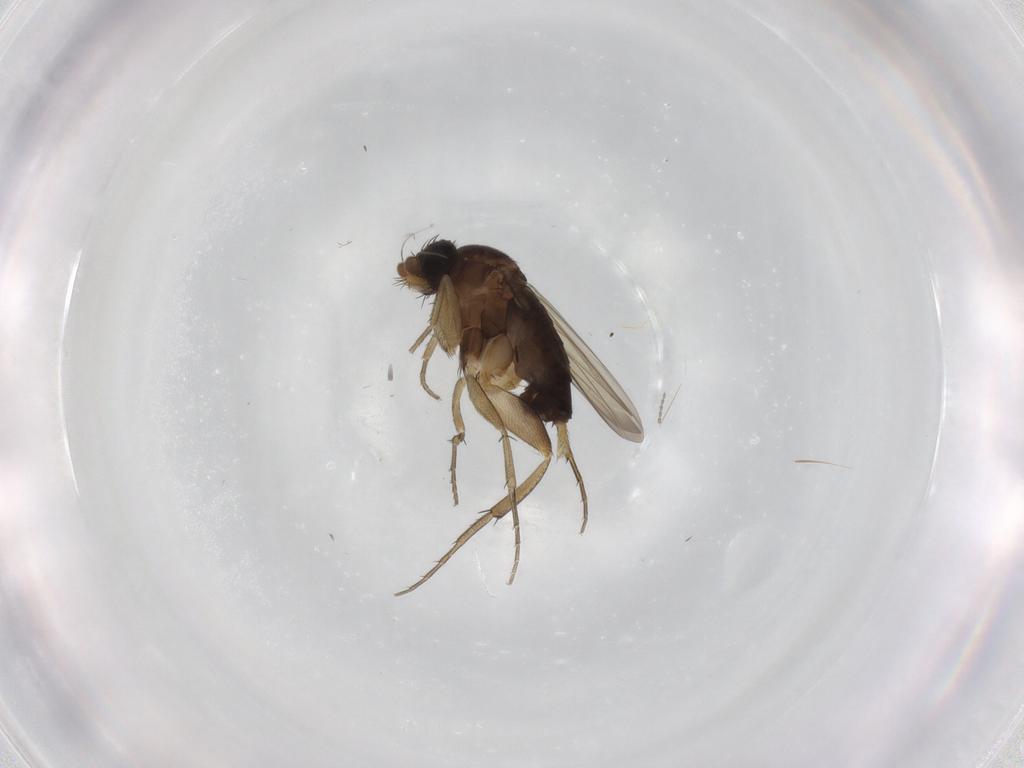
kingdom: Animalia
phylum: Arthropoda
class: Insecta
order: Diptera
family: Phoridae
